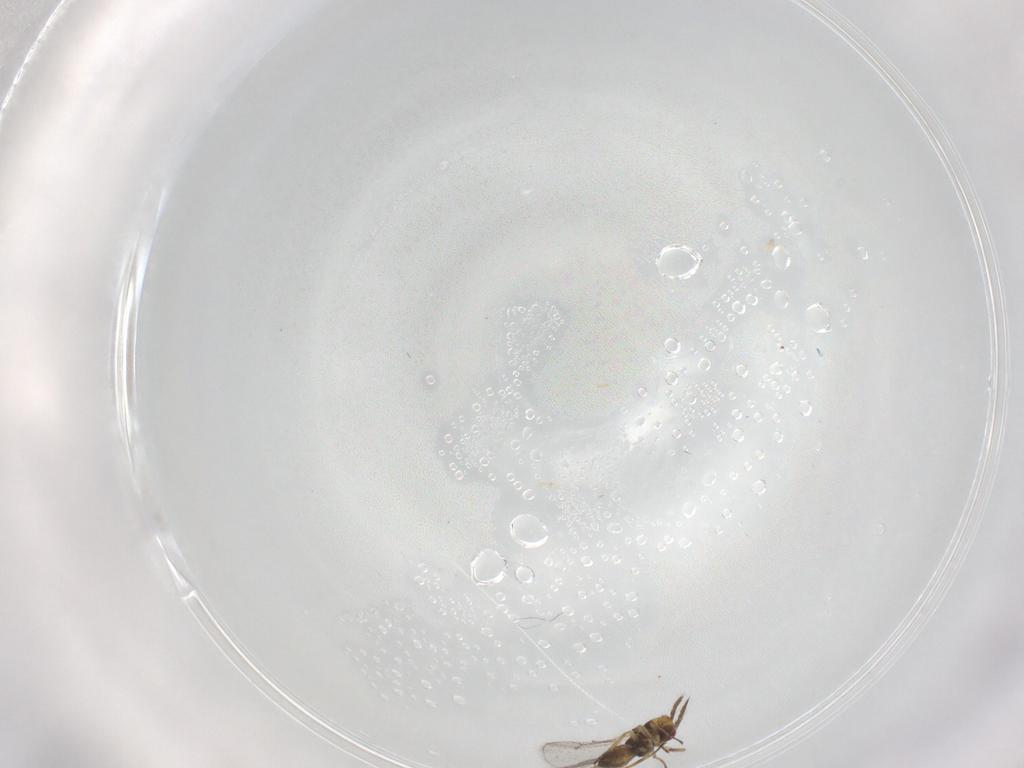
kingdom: Animalia
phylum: Arthropoda
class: Insecta
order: Hymenoptera
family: Eulophidae
